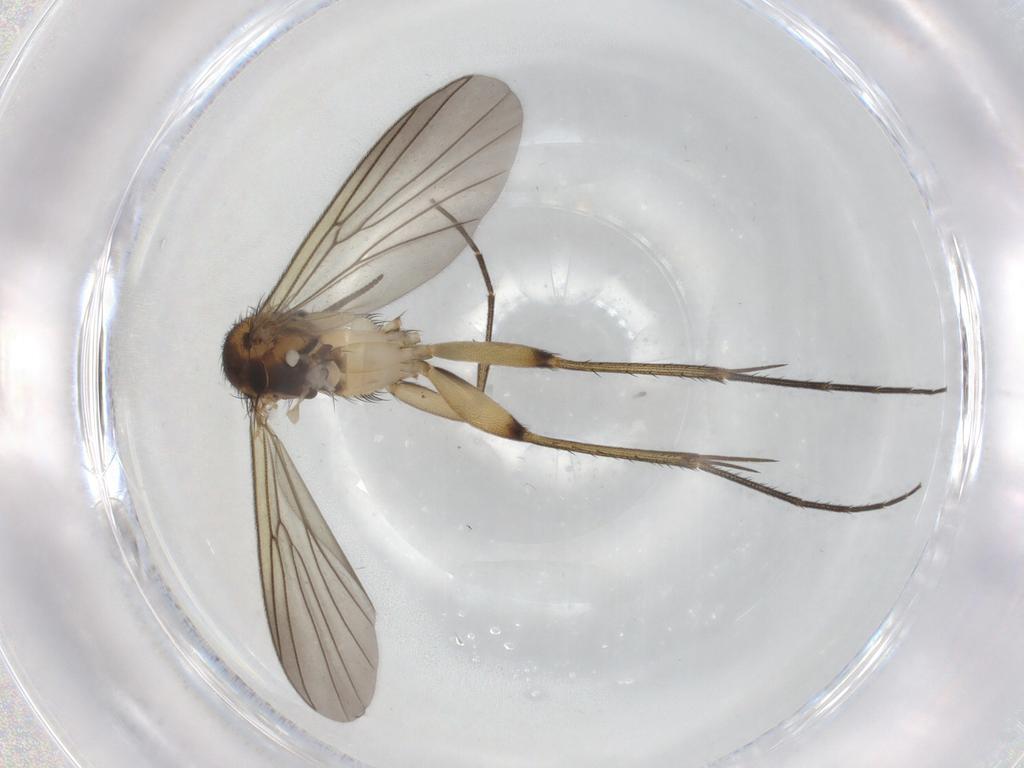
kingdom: Animalia
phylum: Arthropoda
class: Insecta
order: Diptera
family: Mycetophilidae
